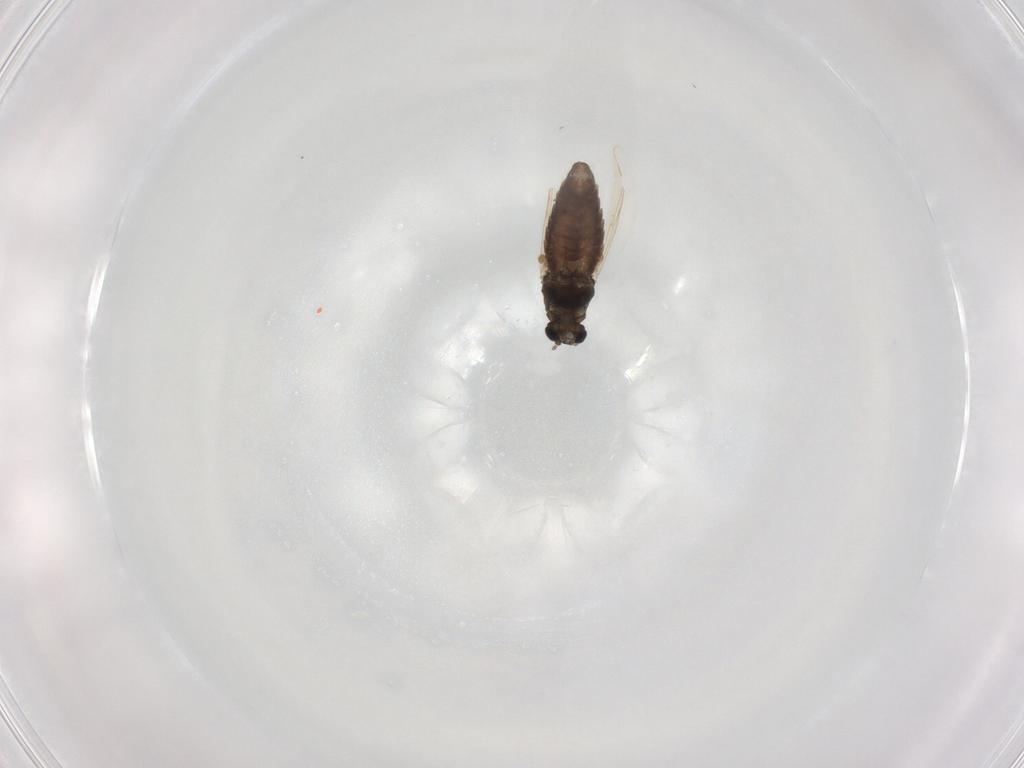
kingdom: Animalia
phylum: Arthropoda
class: Insecta
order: Diptera
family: Chironomidae
